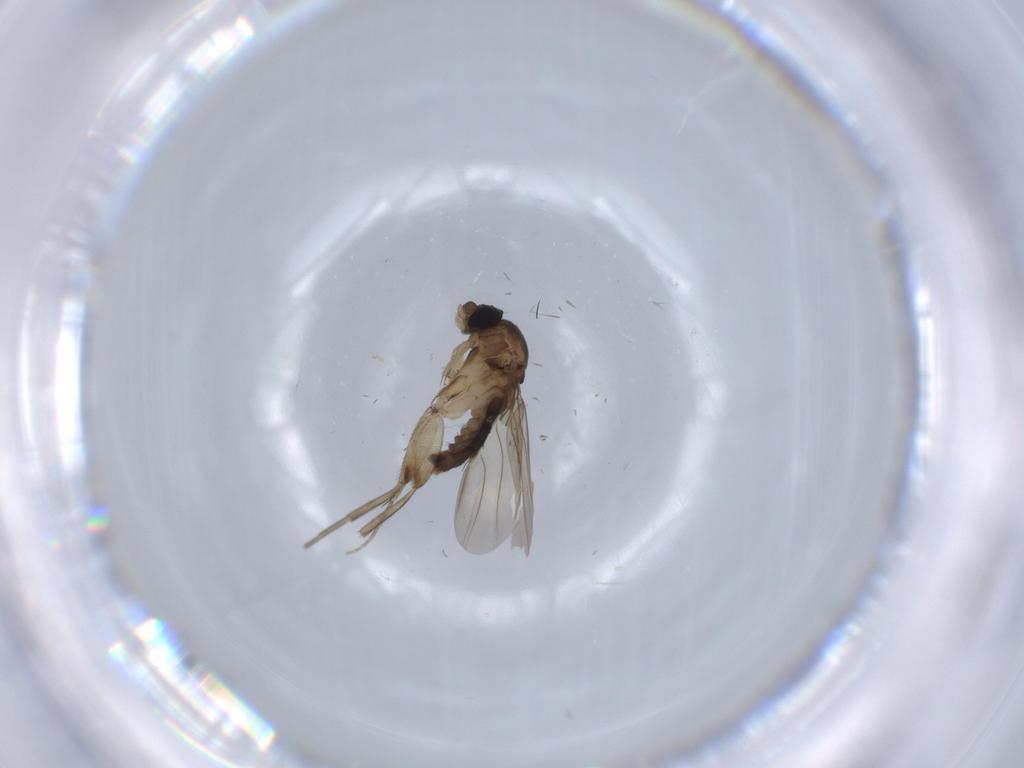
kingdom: Animalia
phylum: Arthropoda
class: Insecta
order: Diptera
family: Phoridae
